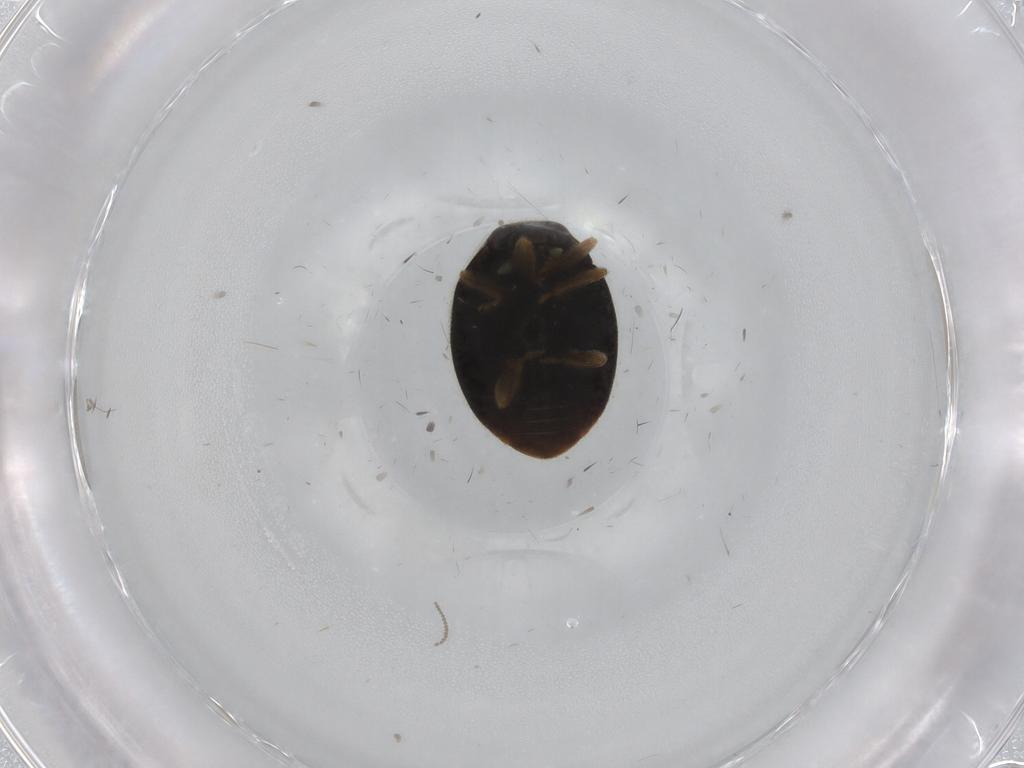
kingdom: Animalia
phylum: Arthropoda
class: Insecta
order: Coleoptera
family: Coccinellidae
